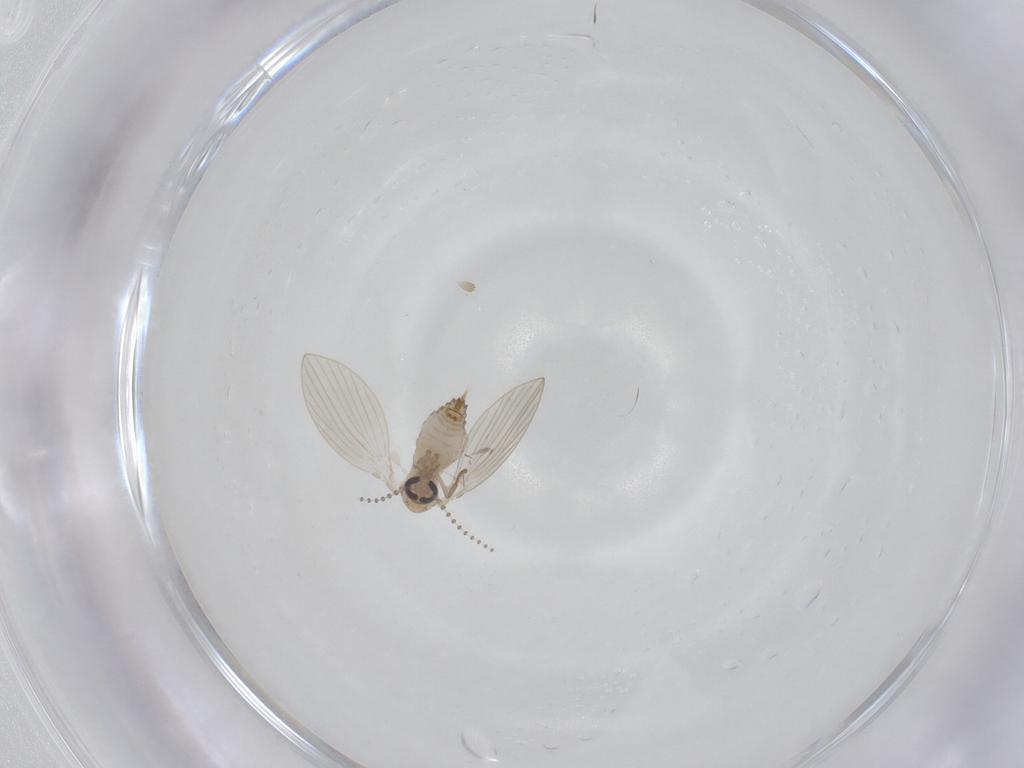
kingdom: Animalia
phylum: Arthropoda
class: Insecta
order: Diptera
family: Psychodidae
